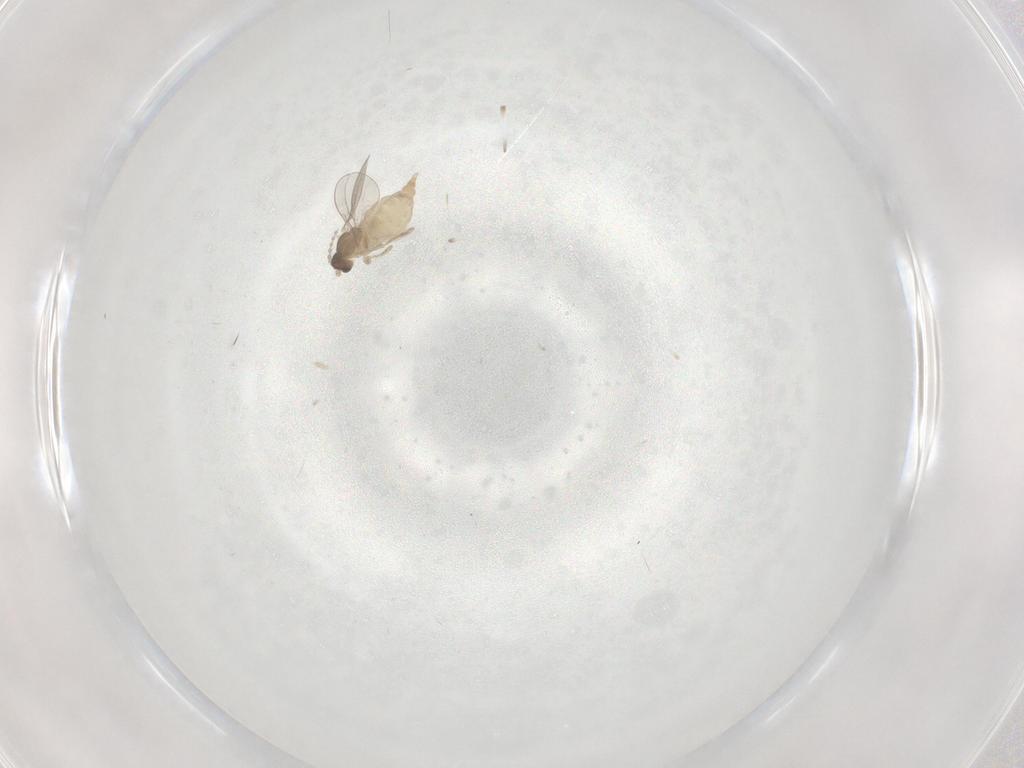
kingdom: Animalia
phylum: Arthropoda
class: Insecta
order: Diptera
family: Cecidomyiidae
